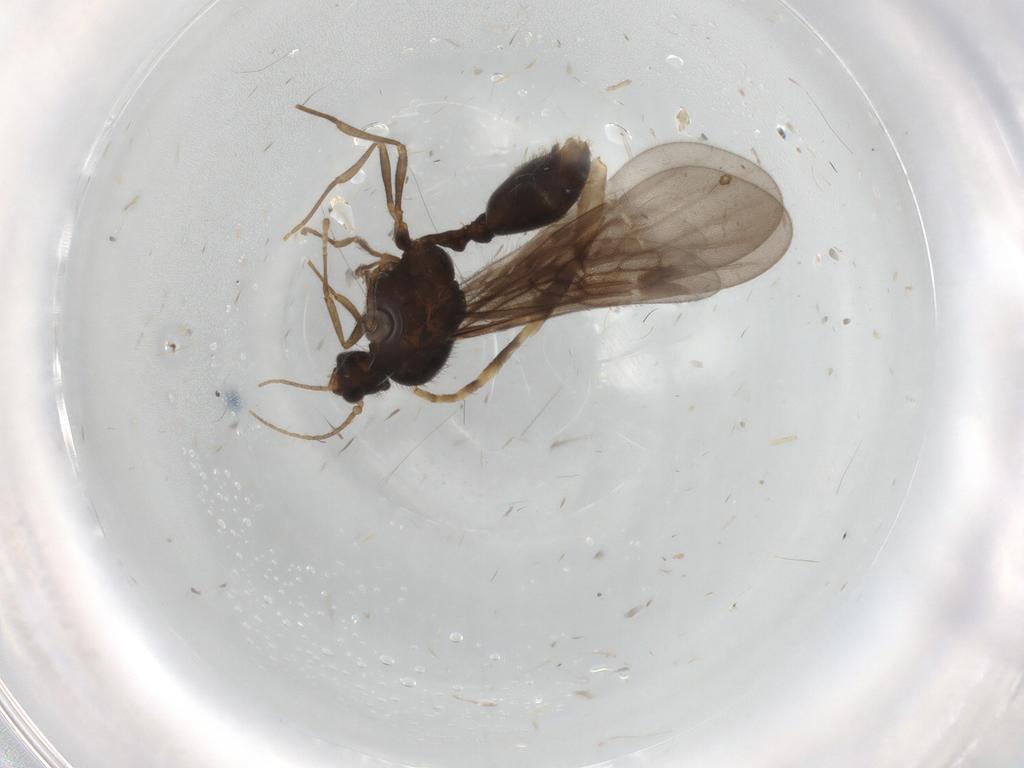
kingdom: Animalia
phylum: Arthropoda
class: Insecta
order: Hymenoptera
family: Formicidae
